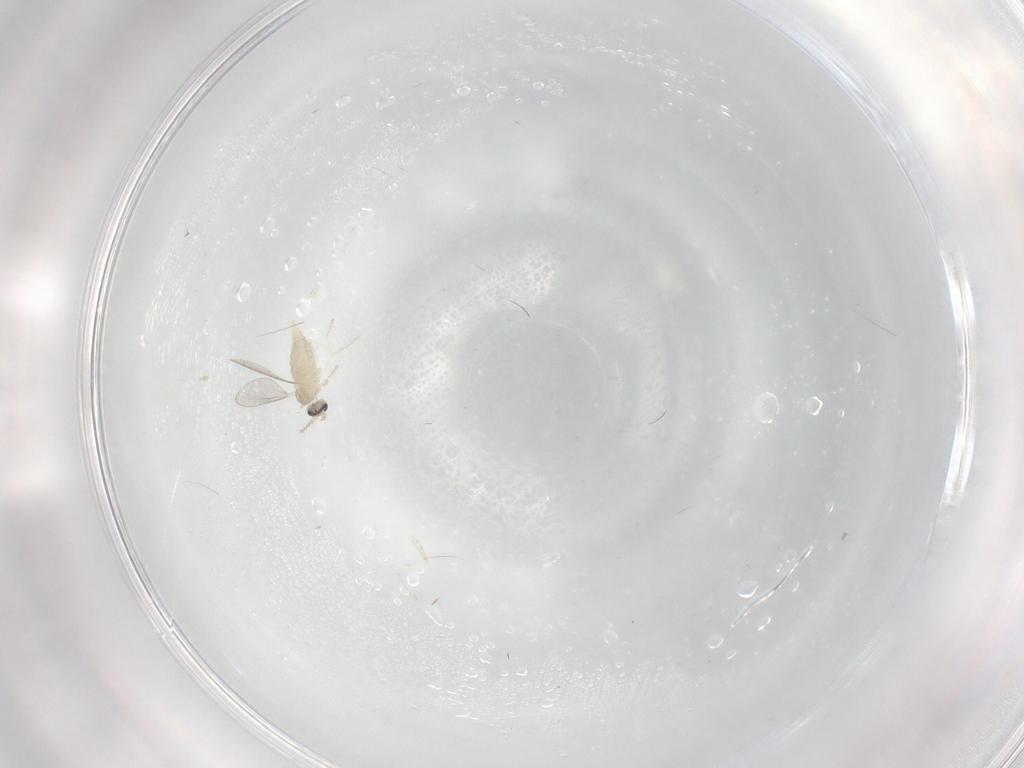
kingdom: Animalia
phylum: Arthropoda
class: Insecta
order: Diptera
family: Cecidomyiidae
